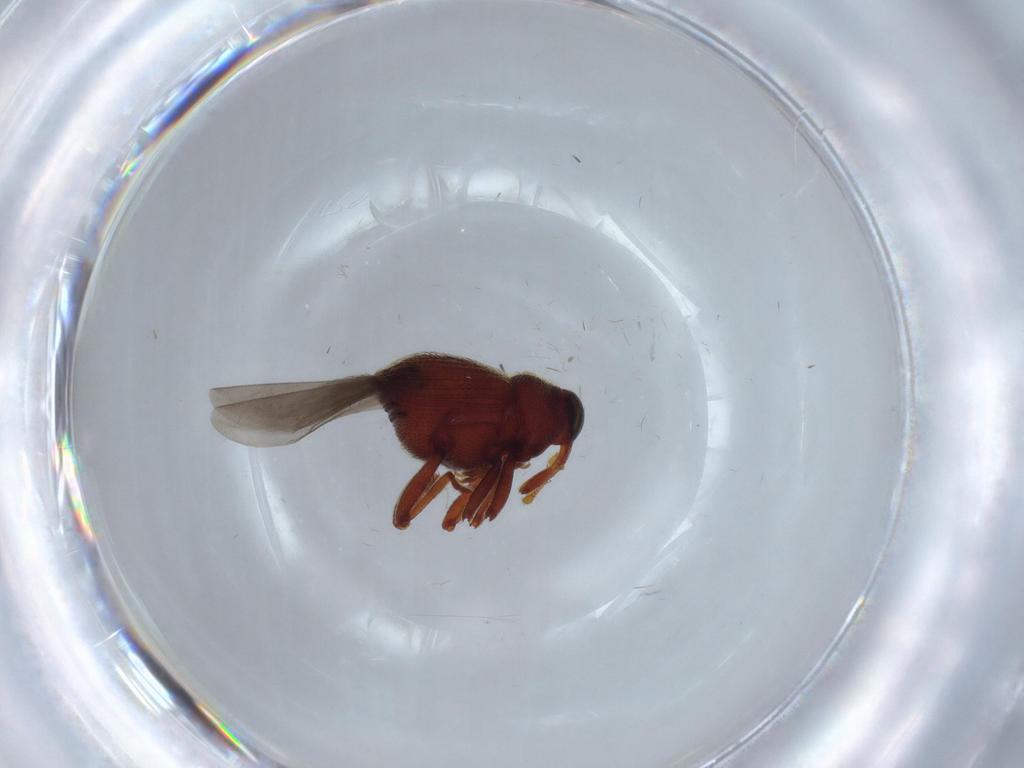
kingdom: Animalia
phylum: Arthropoda
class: Insecta
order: Coleoptera
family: Curculionidae
